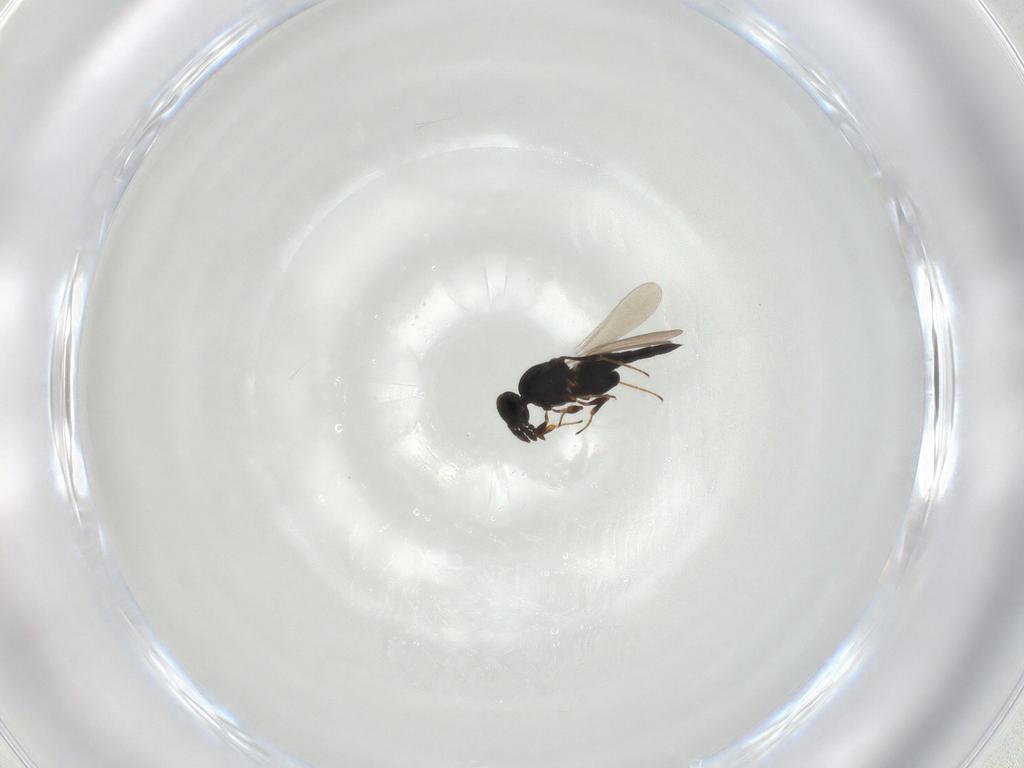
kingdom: Animalia
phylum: Arthropoda
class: Insecta
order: Hymenoptera
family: Platygastridae
